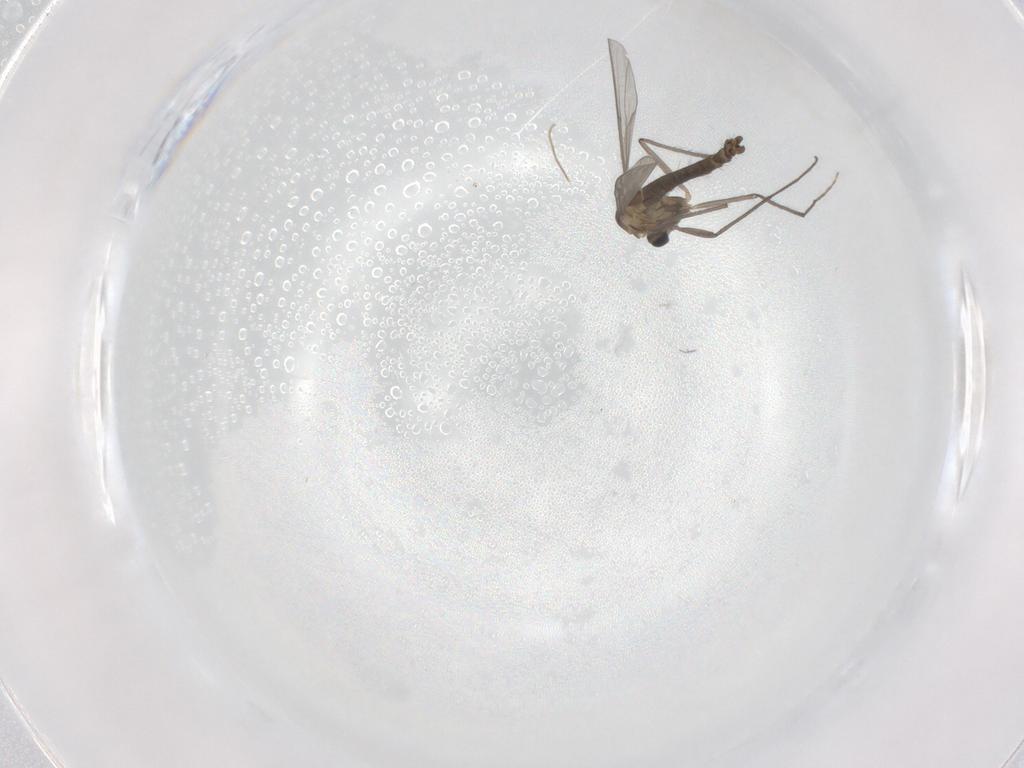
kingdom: Animalia
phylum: Arthropoda
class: Insecta
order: Diptera
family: Chironomidae
